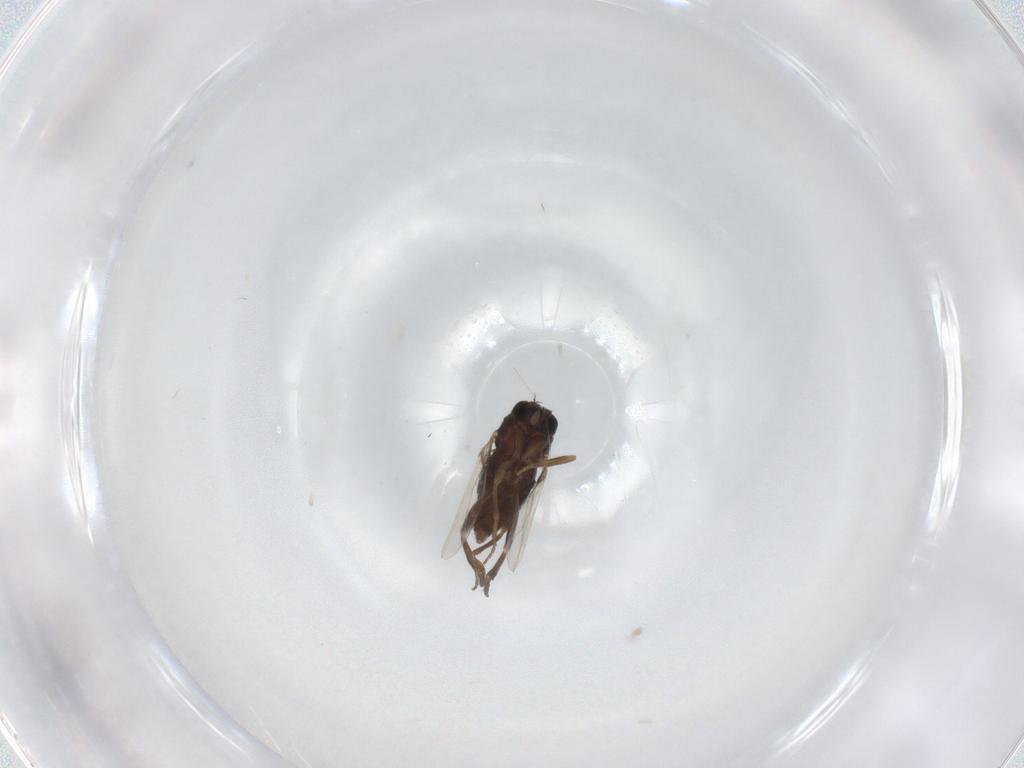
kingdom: Animalia
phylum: Arthropoda
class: Insecta
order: Diptera
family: Phoridae
